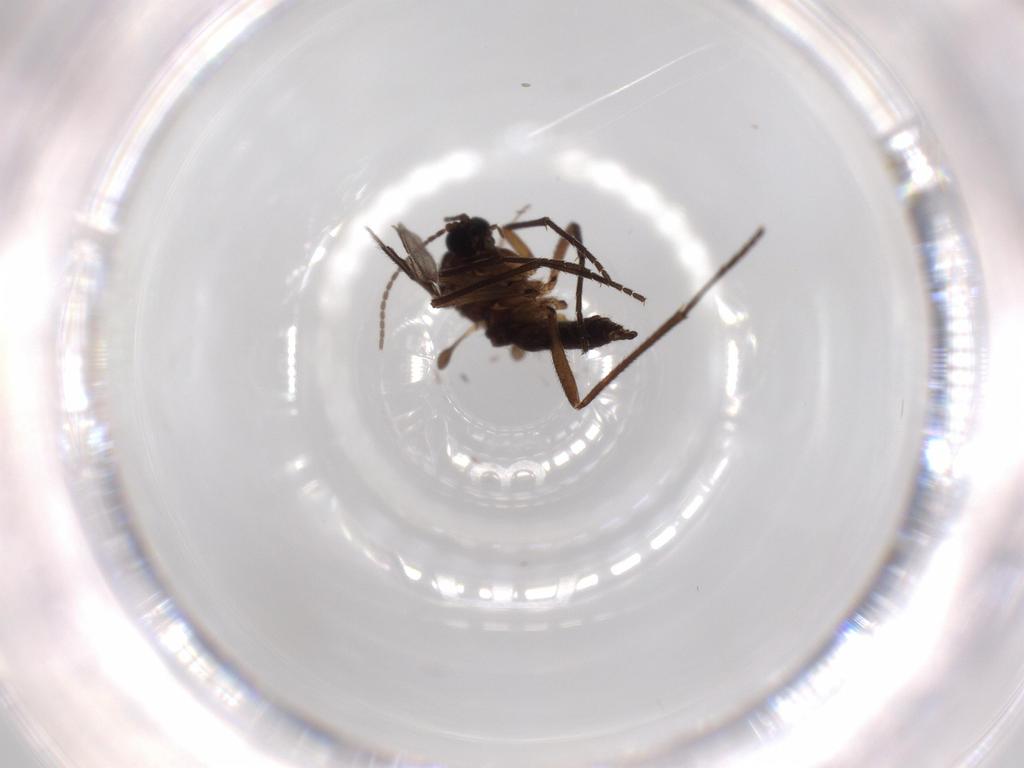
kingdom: Animalia
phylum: Arthropoda
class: Insecta
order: Diptera
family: Sciaridae
